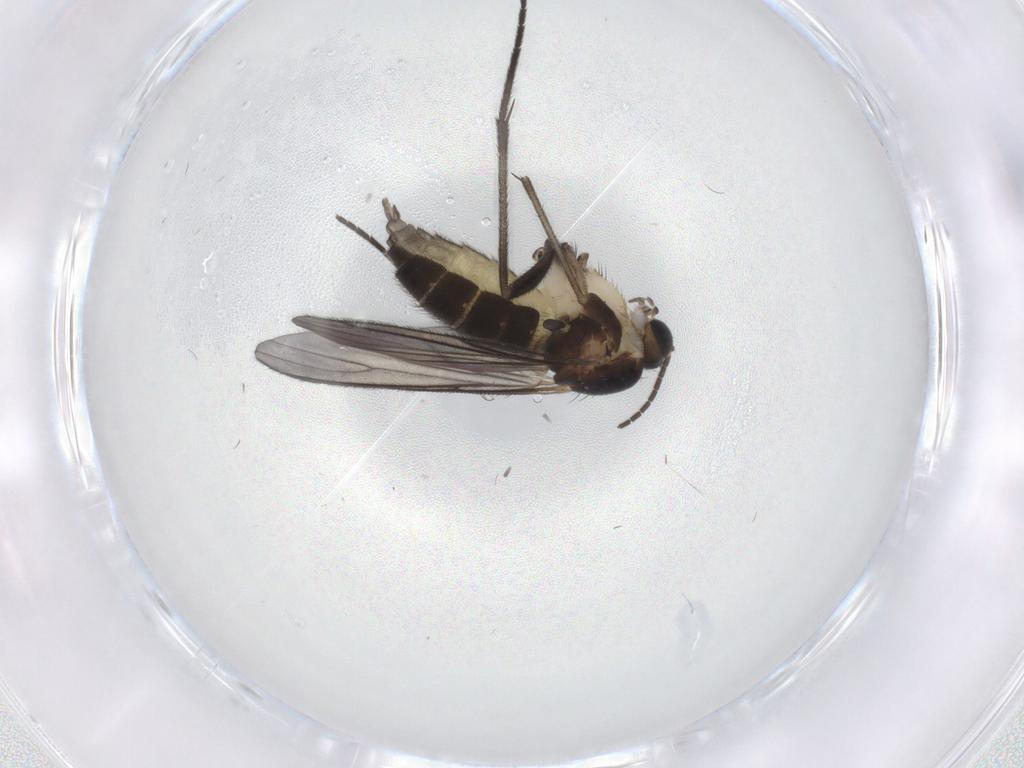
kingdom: Animalia
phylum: Arthropoda
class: Insecta
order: Diptera
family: Sciaridae
